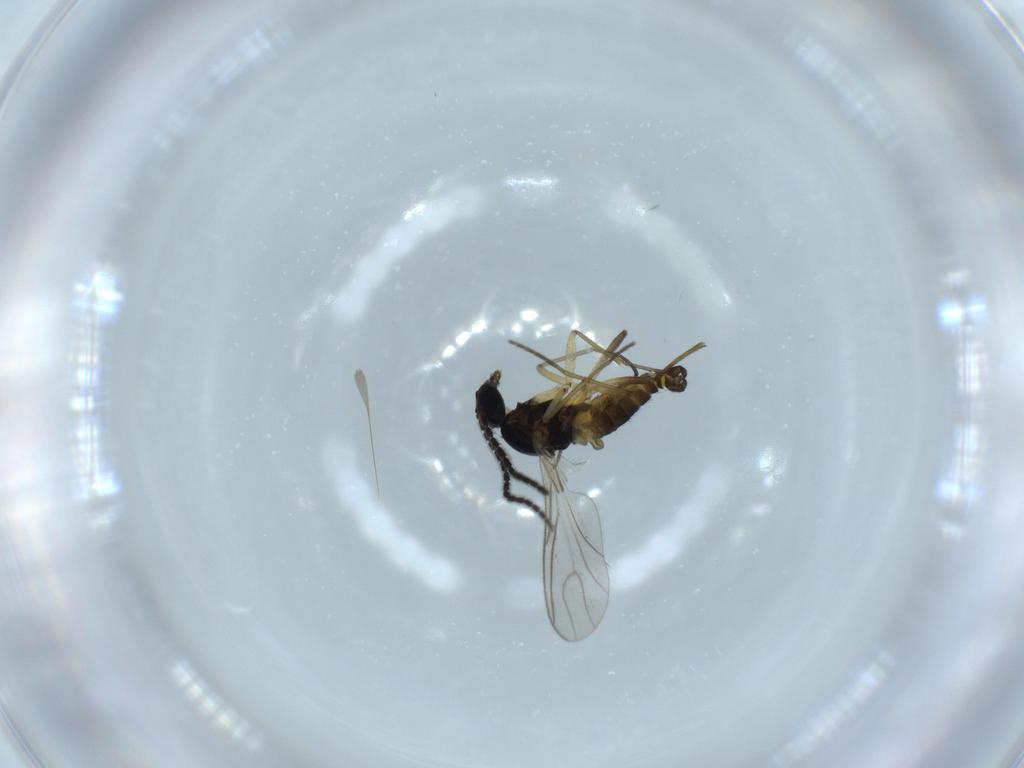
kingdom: Animalia
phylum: Arthropoda
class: Insecta
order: Diptera
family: Sciaridae
